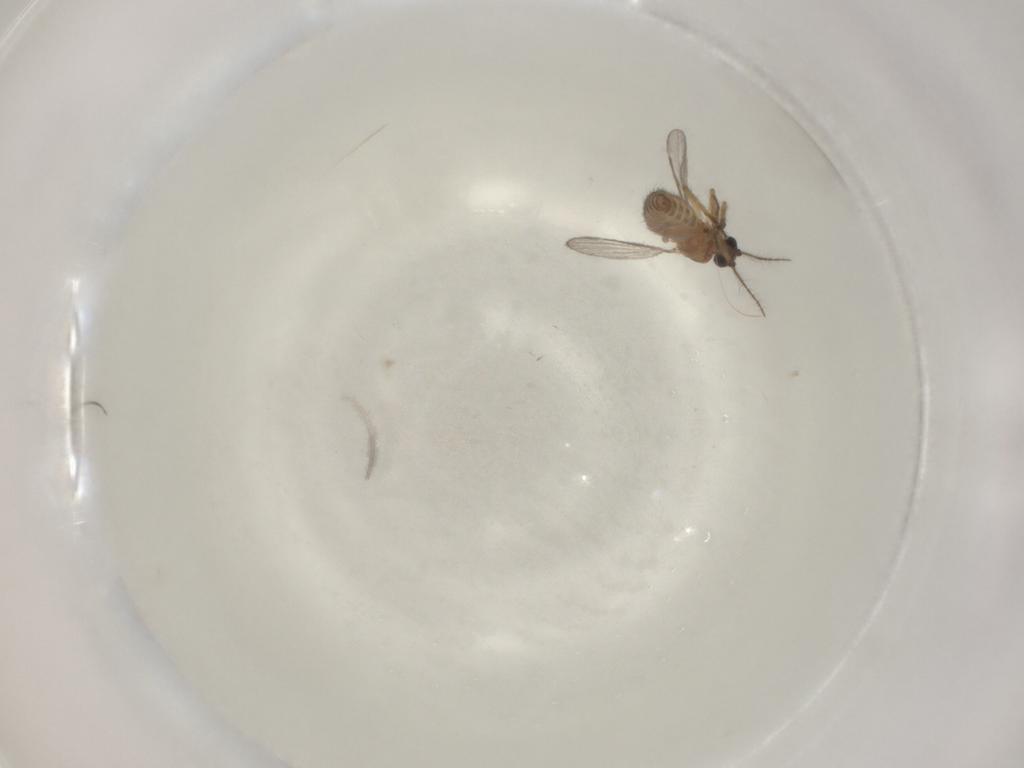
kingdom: Animalia
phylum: Arthropoda
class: Insecta
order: Diptera
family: Ceratopogonidae
